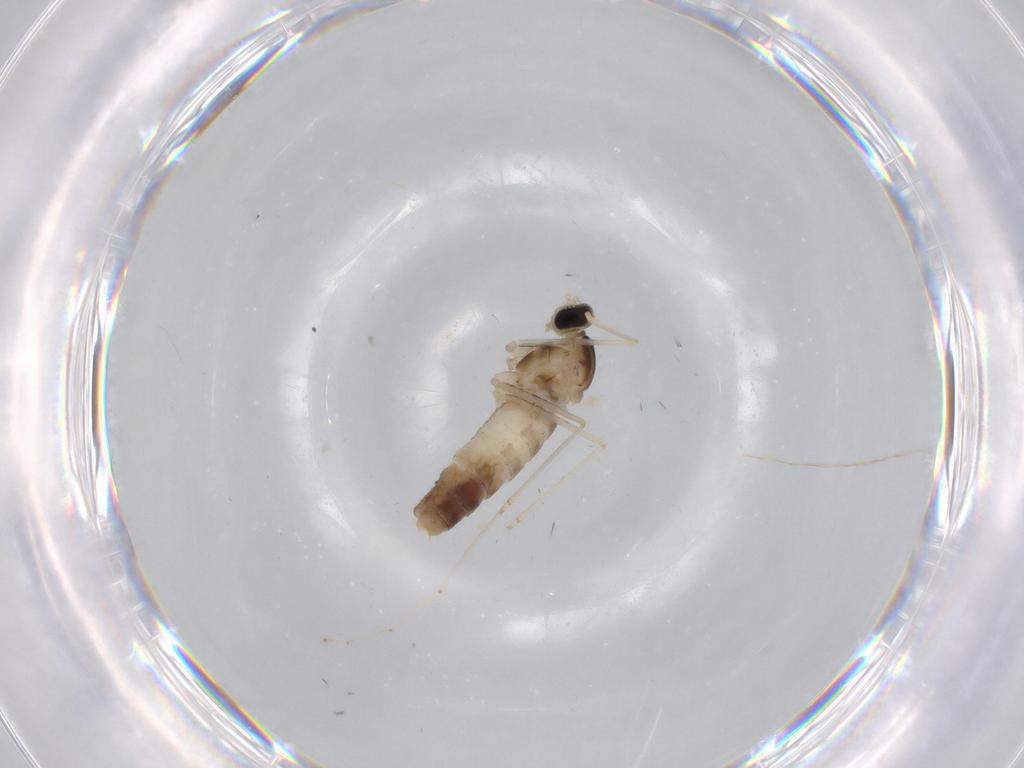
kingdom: Animalia
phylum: Arthropoda
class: Insecta
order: Diptera
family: Cecidomyiidae
